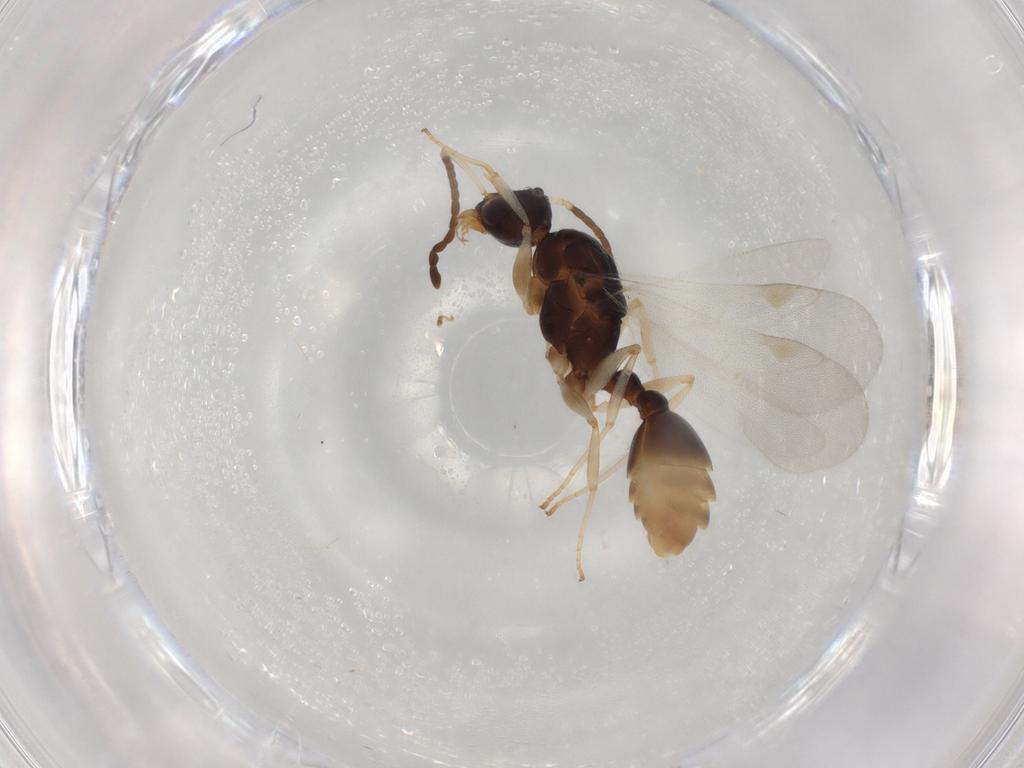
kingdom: Animalia
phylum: Arthropoda
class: Insecta
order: Hymenoptera
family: Formicidae
